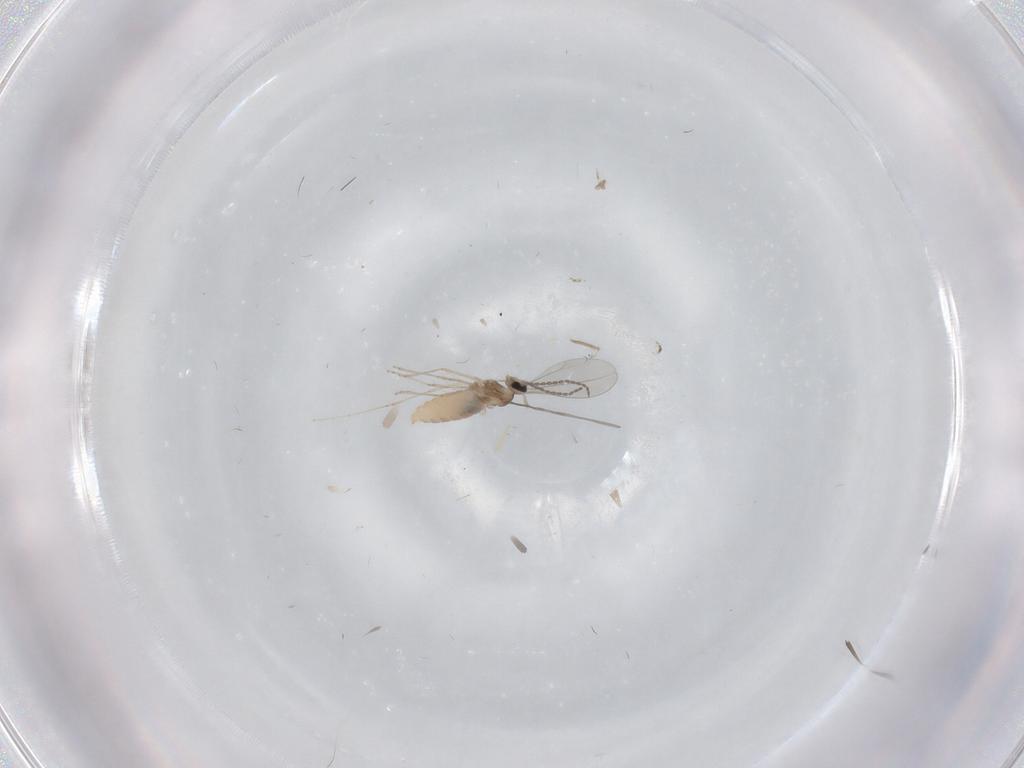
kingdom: Animalia
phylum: Arthropoda
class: Insecta
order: Diptera
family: Cecidomyiidae
